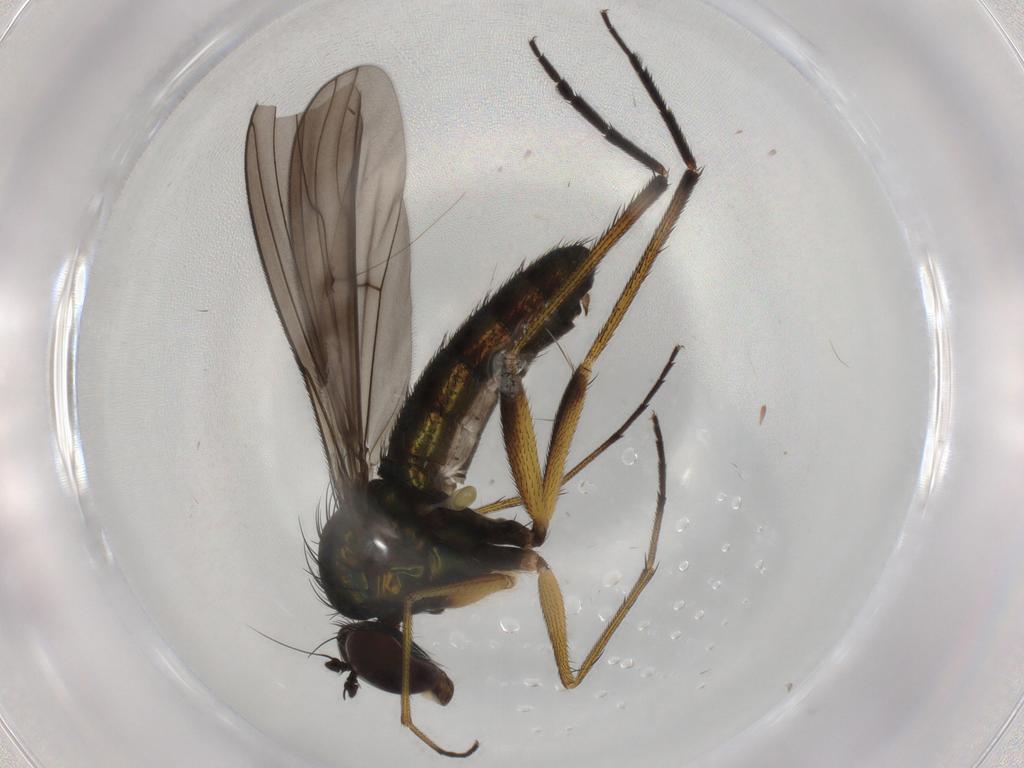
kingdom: Animalia
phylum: Arthropoda
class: Insecta
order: Diptera
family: Dolichopodidae
